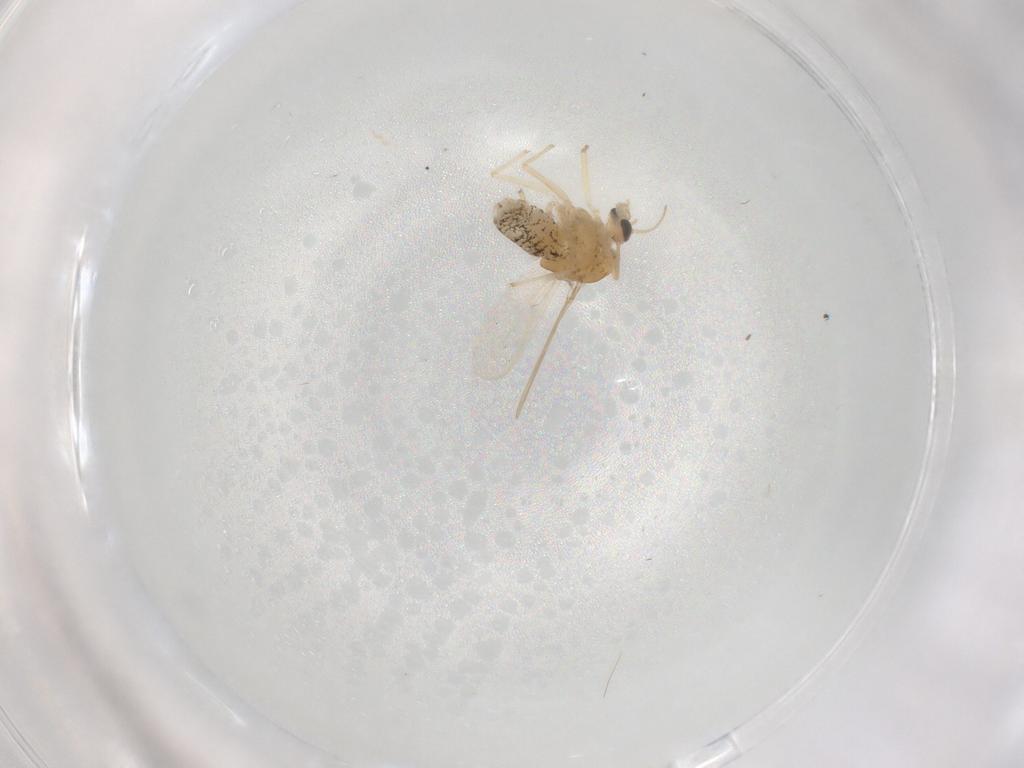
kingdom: Animalia
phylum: Arthropoda
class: Insecta
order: Diptera
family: Chironomidae
